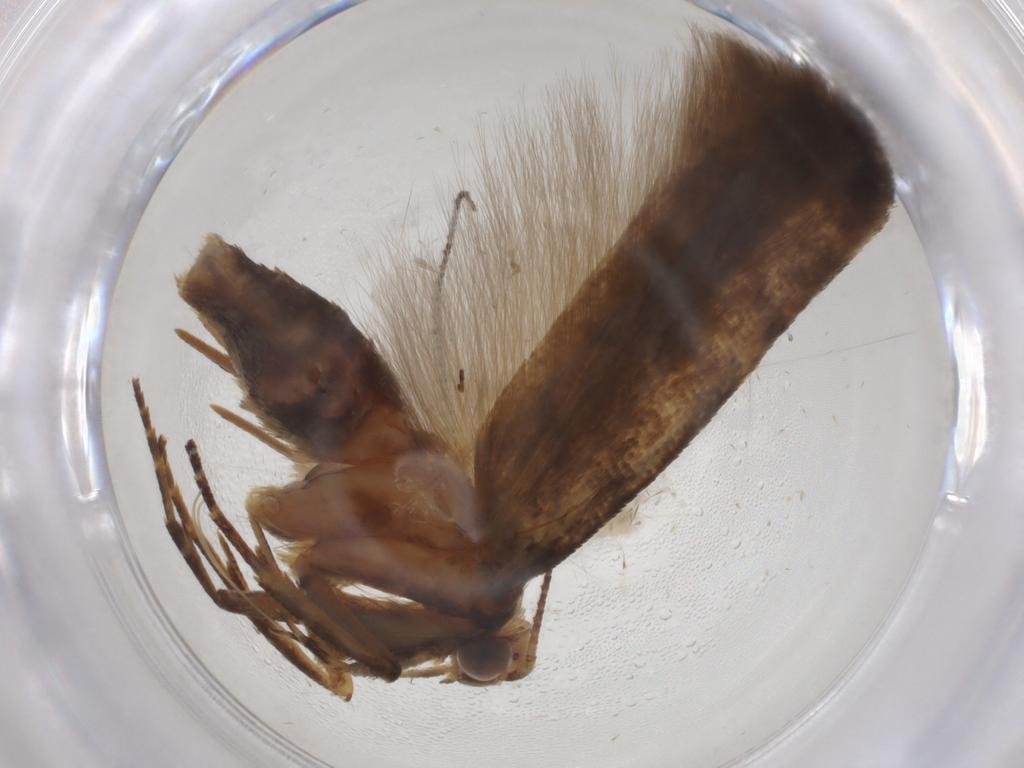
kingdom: Animalia
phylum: Arthropoda
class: Insecta
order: Lepidoptera
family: Gelechiidae
